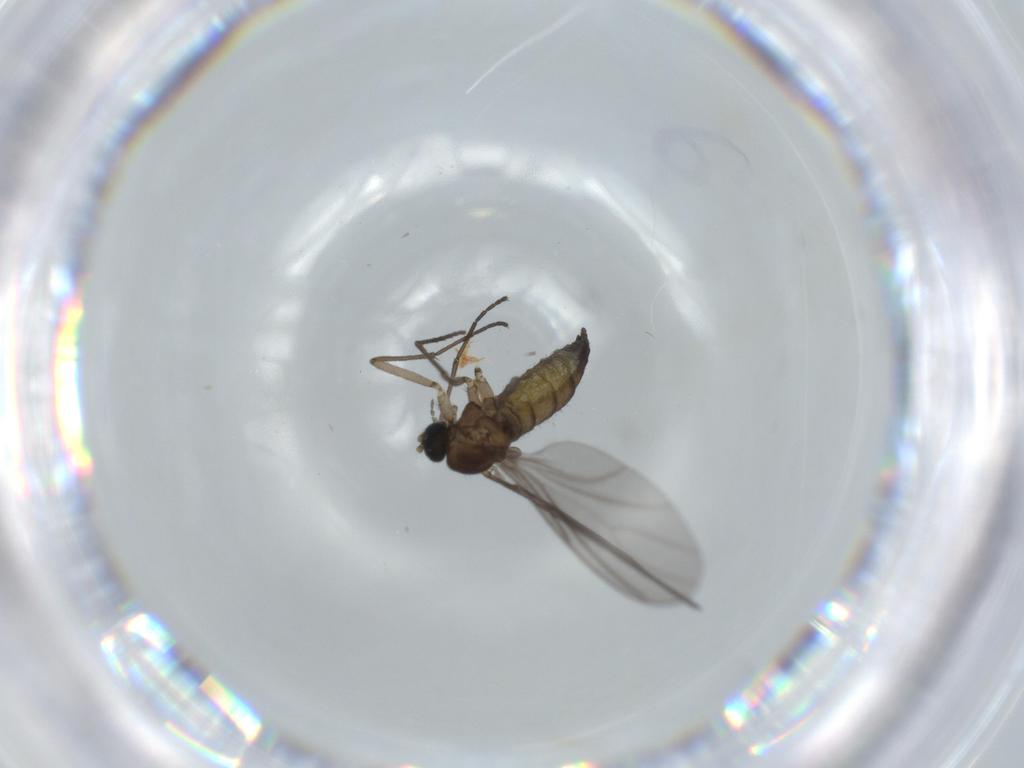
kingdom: Animalia
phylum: Arthropoda
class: Insecta
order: Diptera
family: Sciaridae
